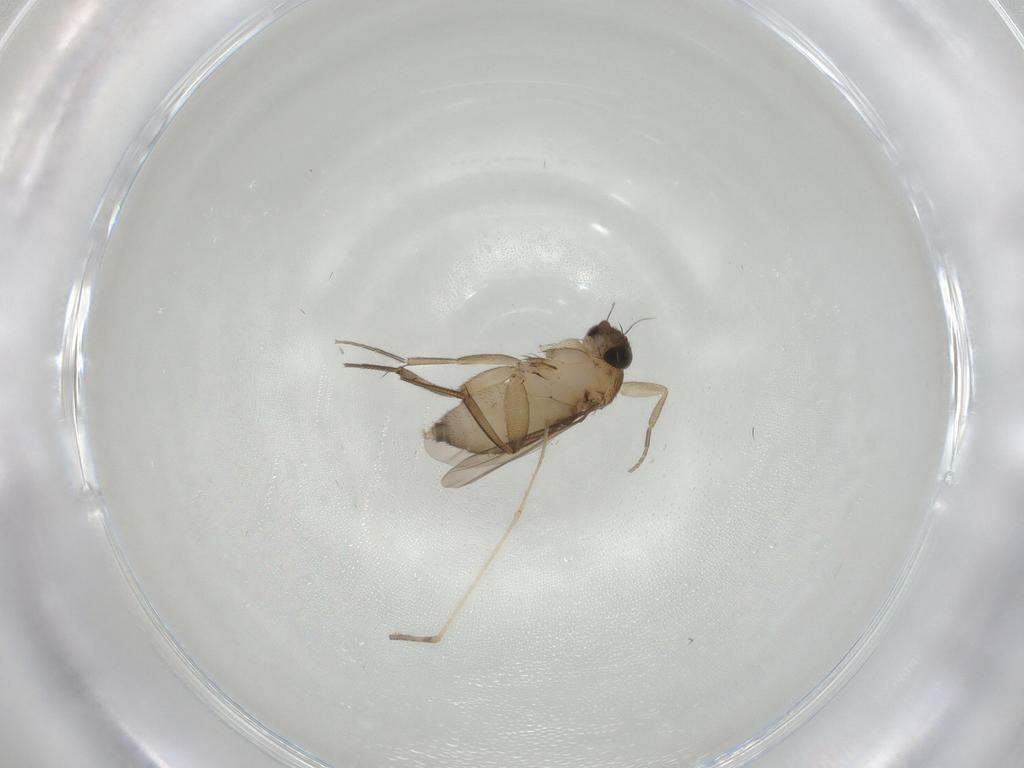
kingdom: Animalia
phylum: Arthropoda
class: Insecta
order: Diptera
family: Phoridae
